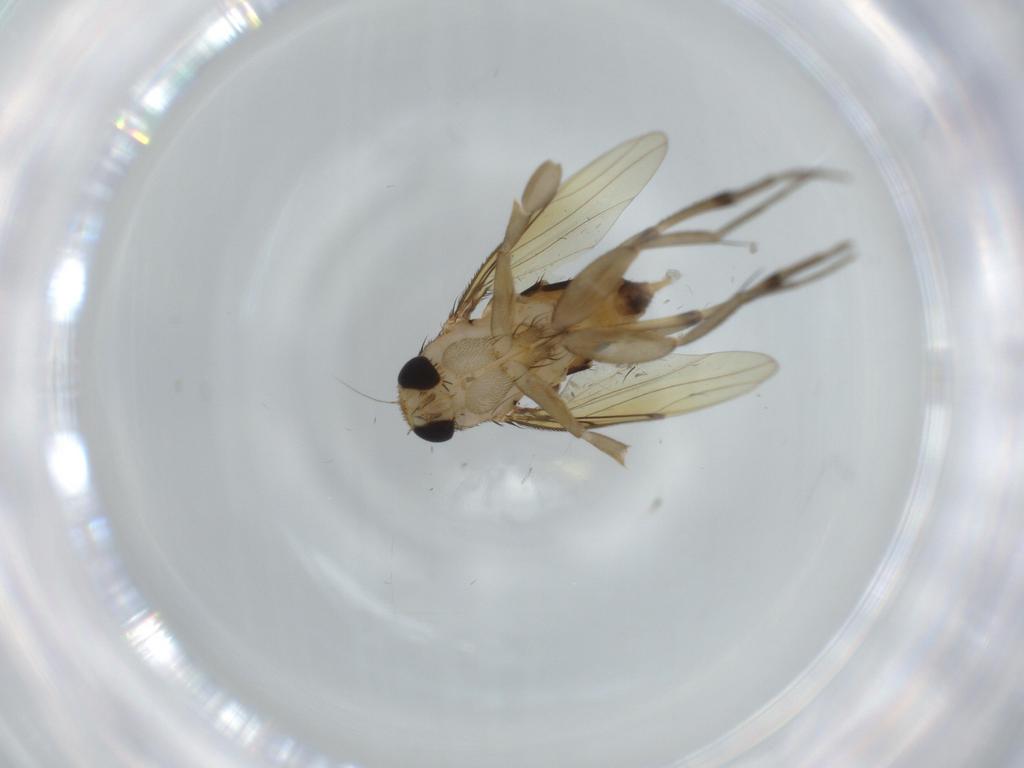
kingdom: Animalia
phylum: Arthropoda
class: Insecta
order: Diptera
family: Phoridae
